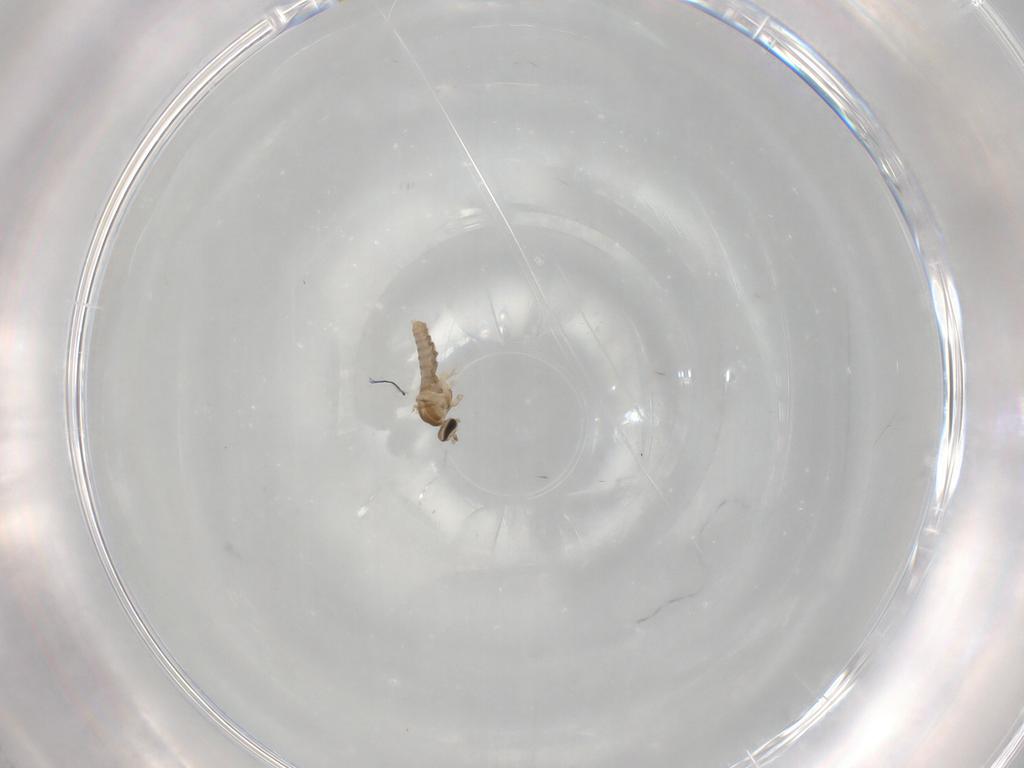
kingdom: Animalia
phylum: Arthropoda
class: Insecta
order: Diptera
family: Cecidomyiidae
